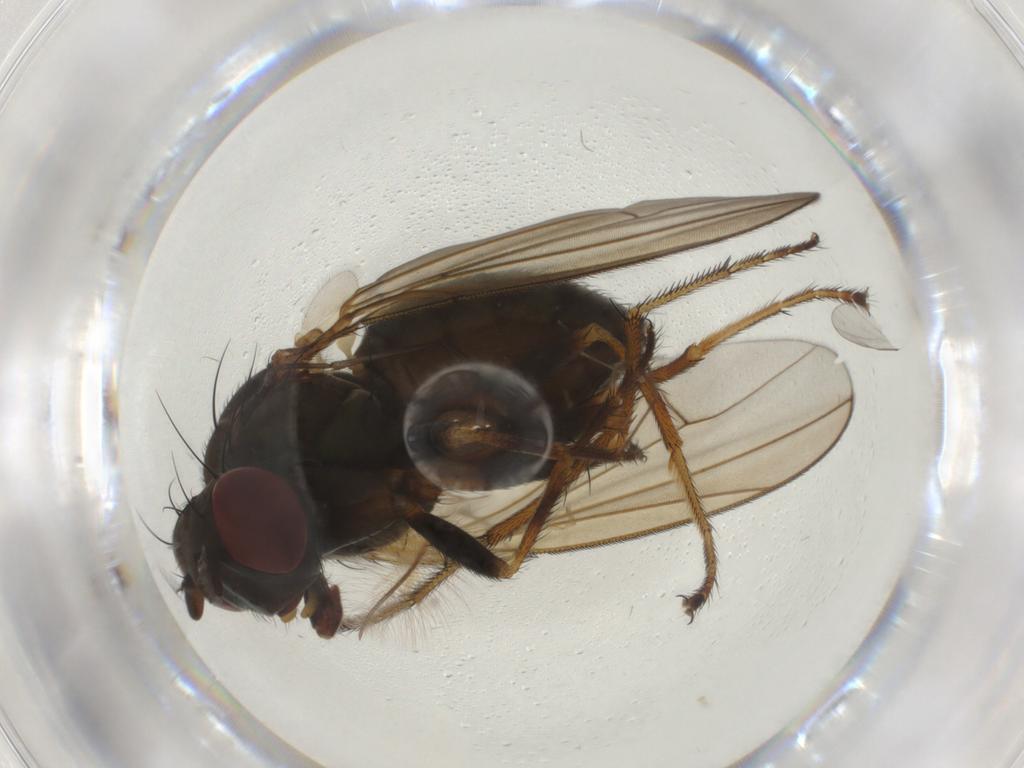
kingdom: Animalia
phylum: Arthropoda
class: Insecta
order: Diptera
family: Ephydridae
